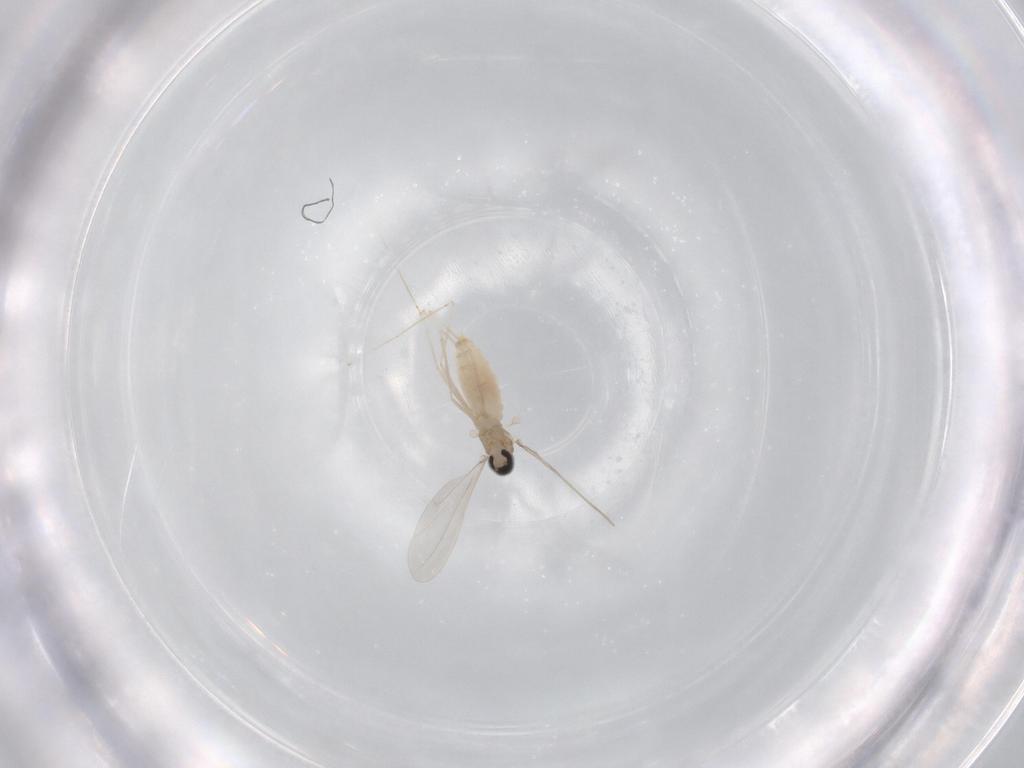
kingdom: Animalia
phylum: Arthropoda
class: Insecta
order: Diptera
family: Cecidomyiidae
